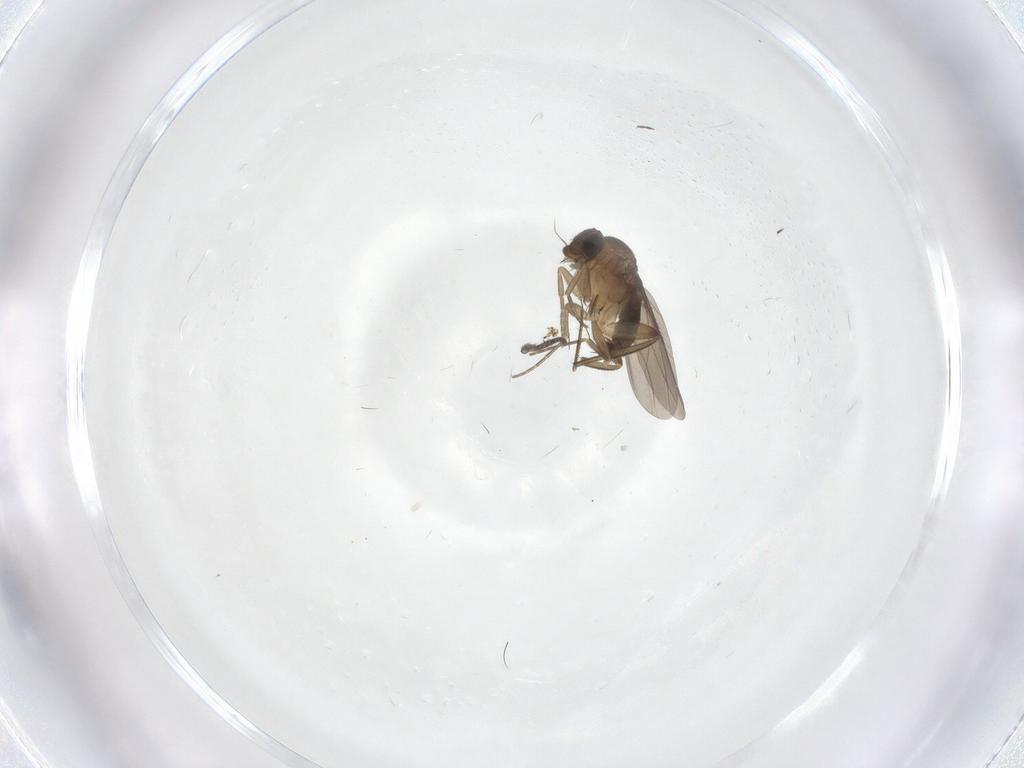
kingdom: Animalia
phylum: Arthropoda
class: Insecta
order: Diptera
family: Phoridae
